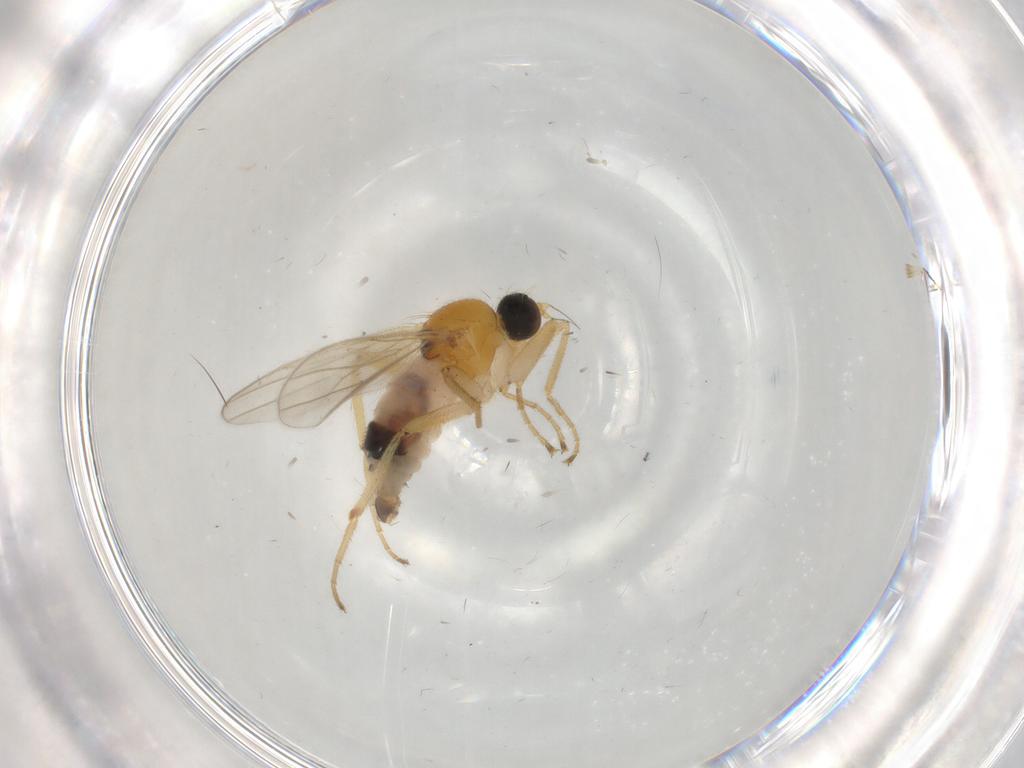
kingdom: Animalia
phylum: Arthropoda
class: Insecta
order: Diptera
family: Hybotidae
